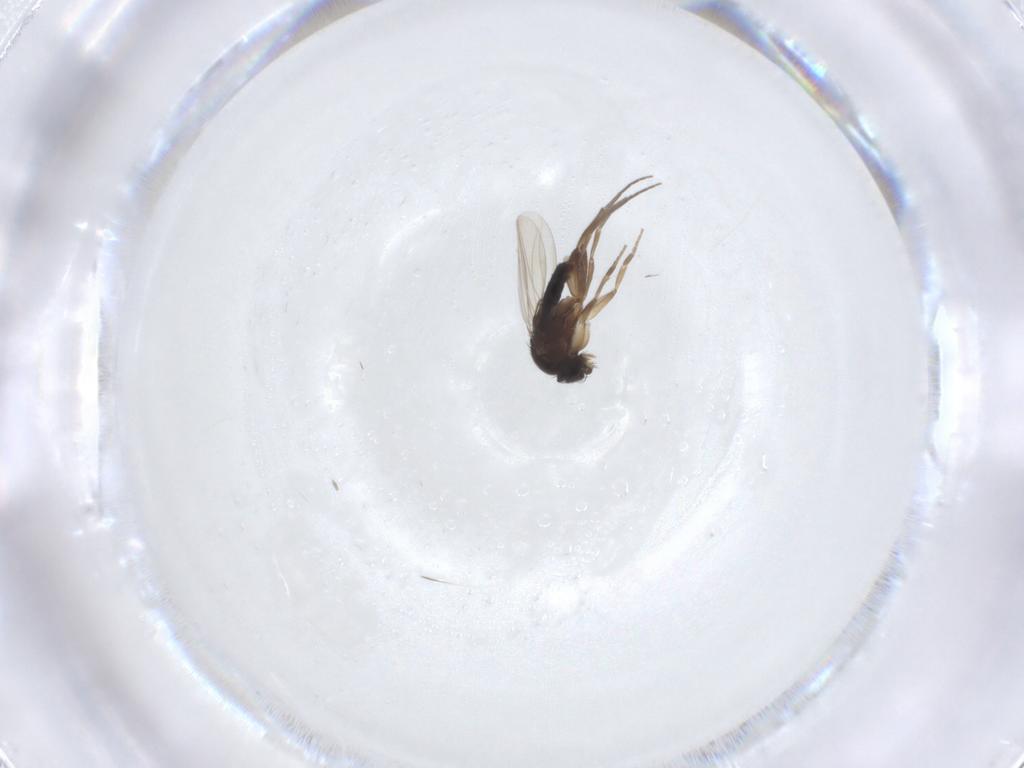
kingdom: Animalia
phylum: Arthropoda
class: Insecta
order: Diptera
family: Phoridae
